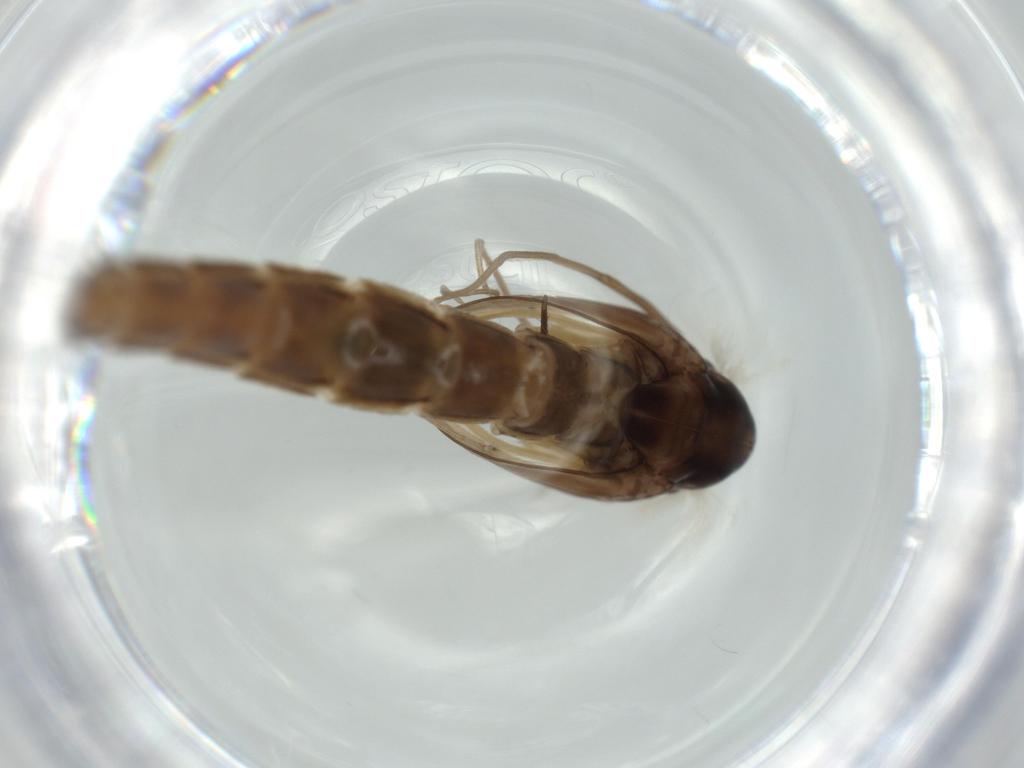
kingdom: Animalia
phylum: Arthropoda
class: Insecta
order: Diptera
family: Chironomidae
